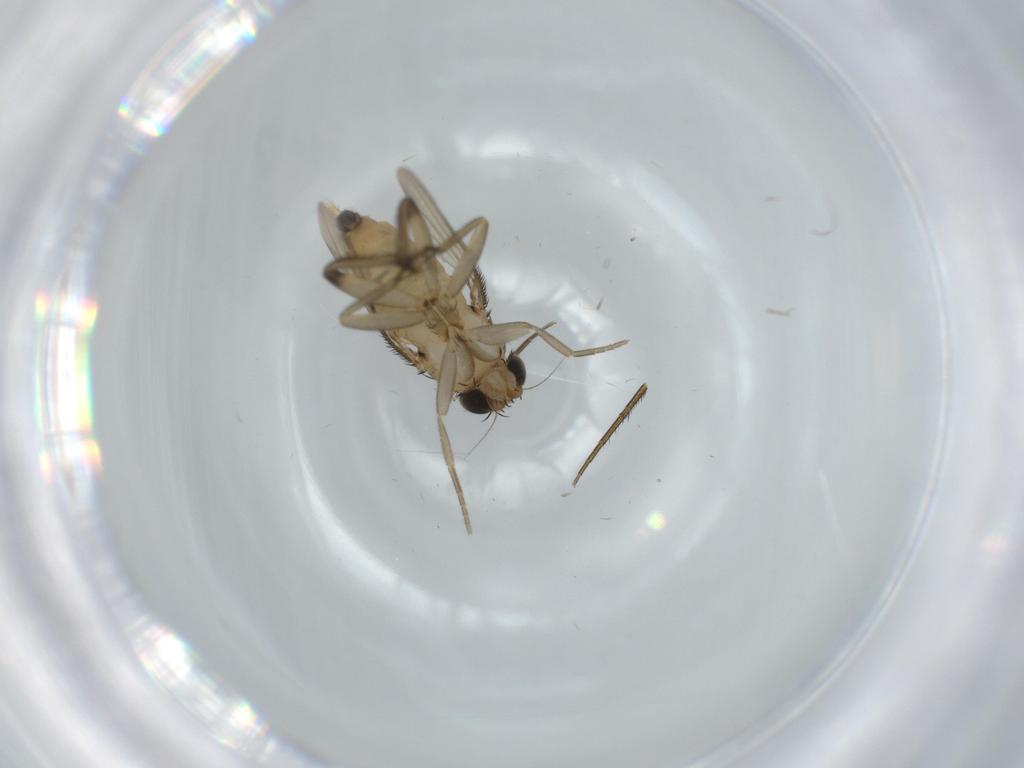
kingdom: Animalia
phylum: Arthropoda
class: Insecta
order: Diptera
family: Phoridae
